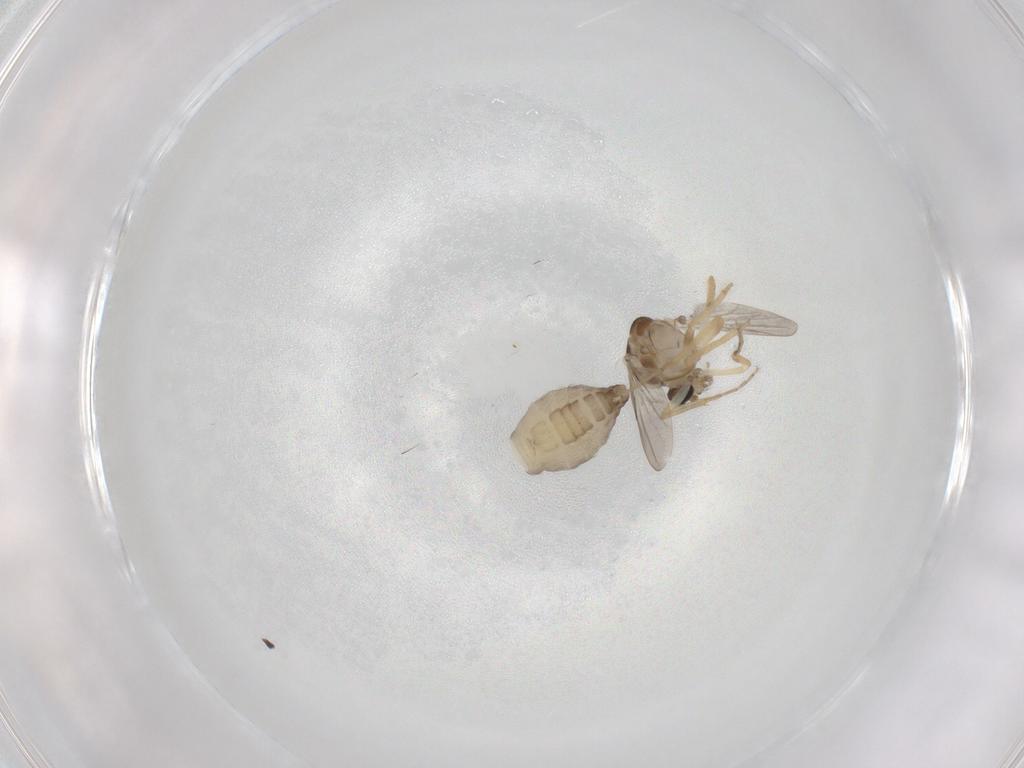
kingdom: Animalia
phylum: Arthropoda
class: Insecta
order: Diptera
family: Ceratopogonidae
